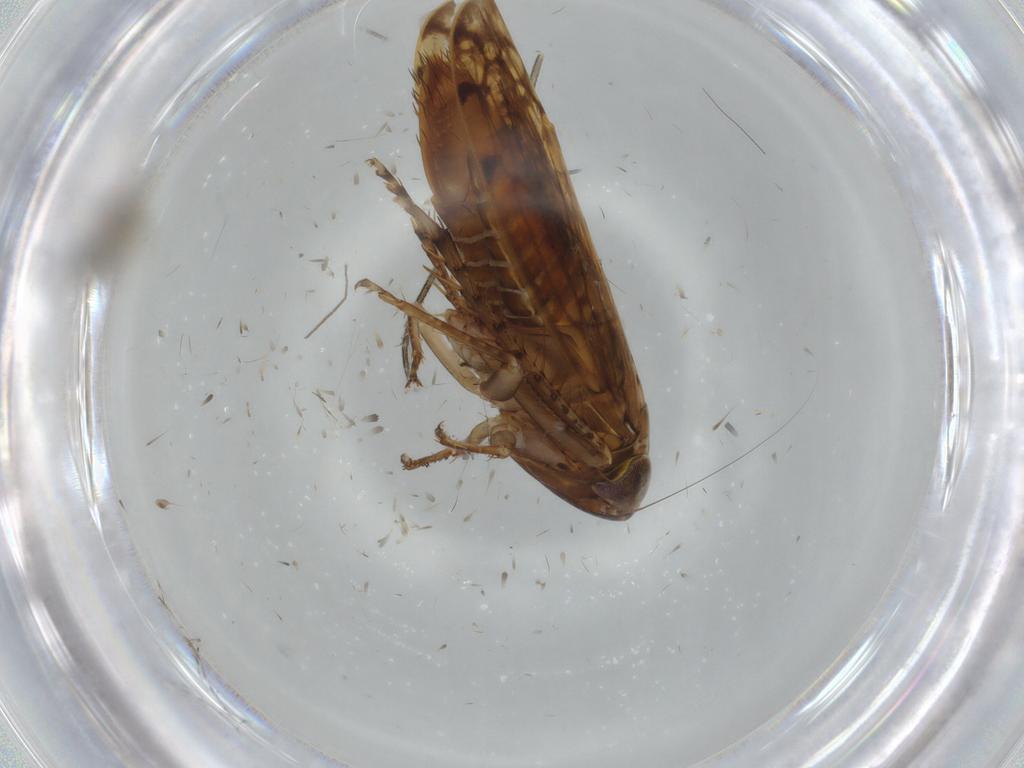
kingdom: Animalia
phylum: Arthropoda
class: Insecta
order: Hemiptera
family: Cicadellidae
